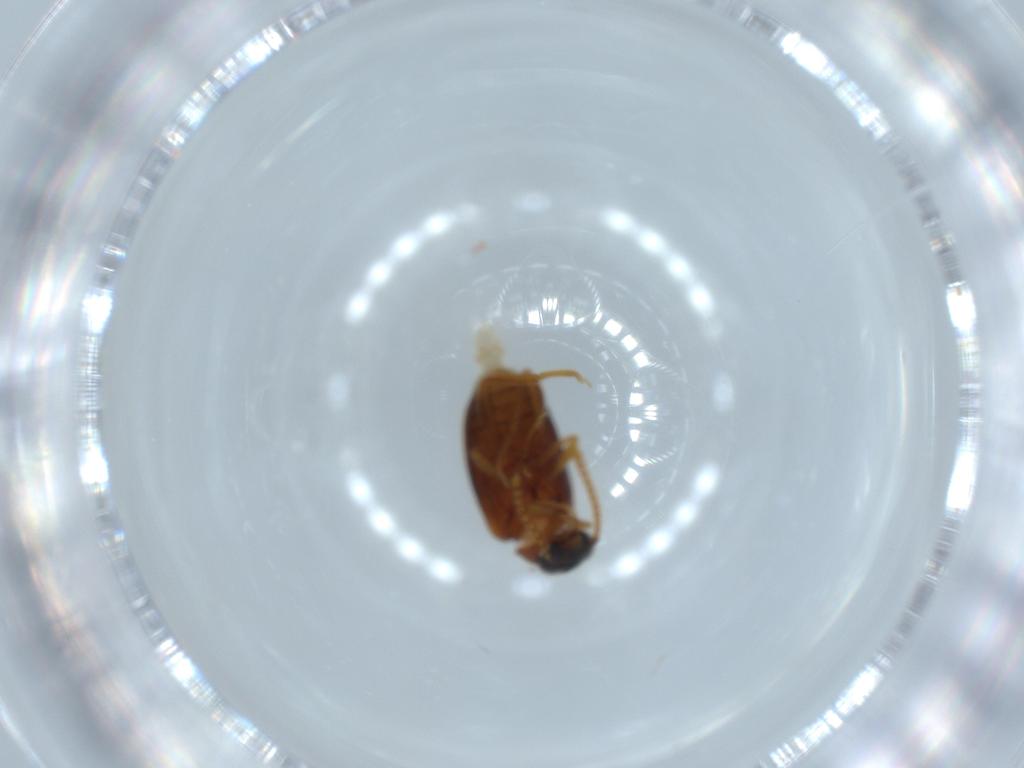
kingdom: Animalia
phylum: Arthropoda
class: Insecta
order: Coleoptera
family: Aderidae
